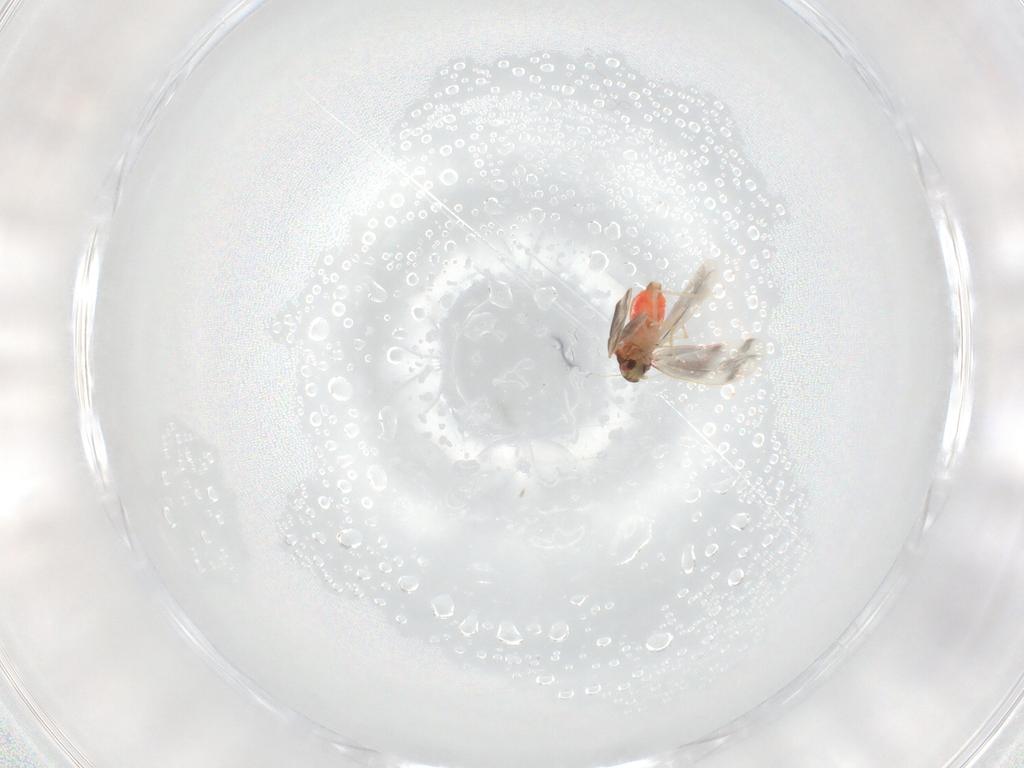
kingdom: Animalia
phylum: Arthropoda
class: Insecta
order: Hemiptera
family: Aleyrodidae
